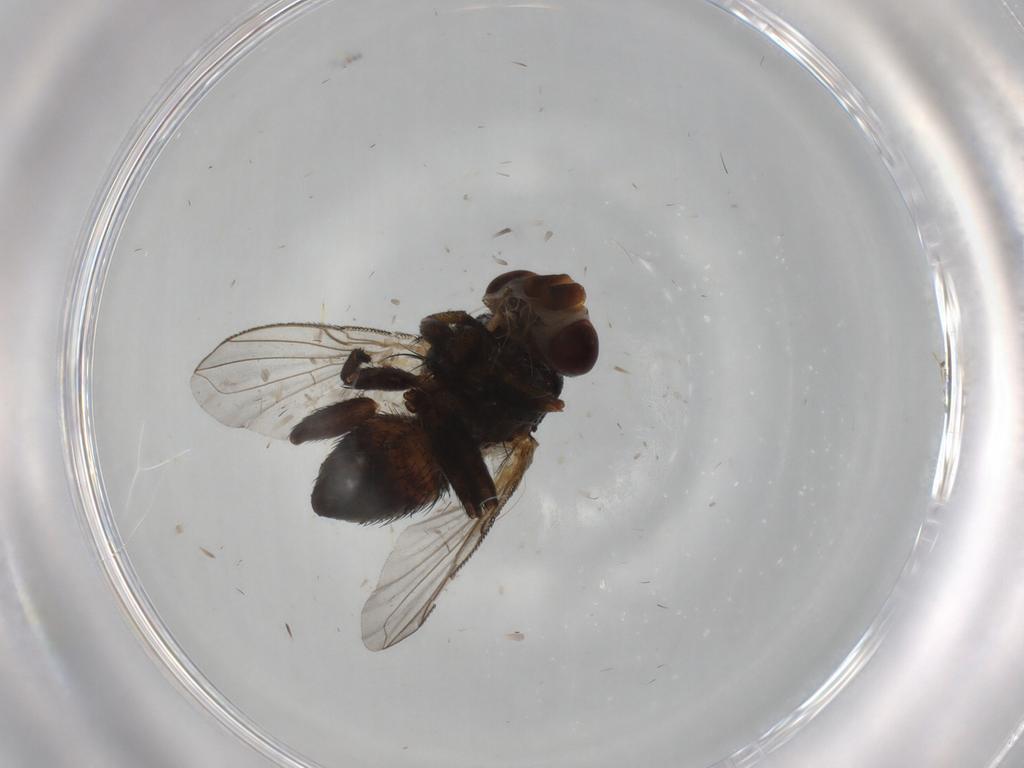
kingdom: Animalia
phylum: Arthropoda
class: Insecta
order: Diptera
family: Glossinidae
